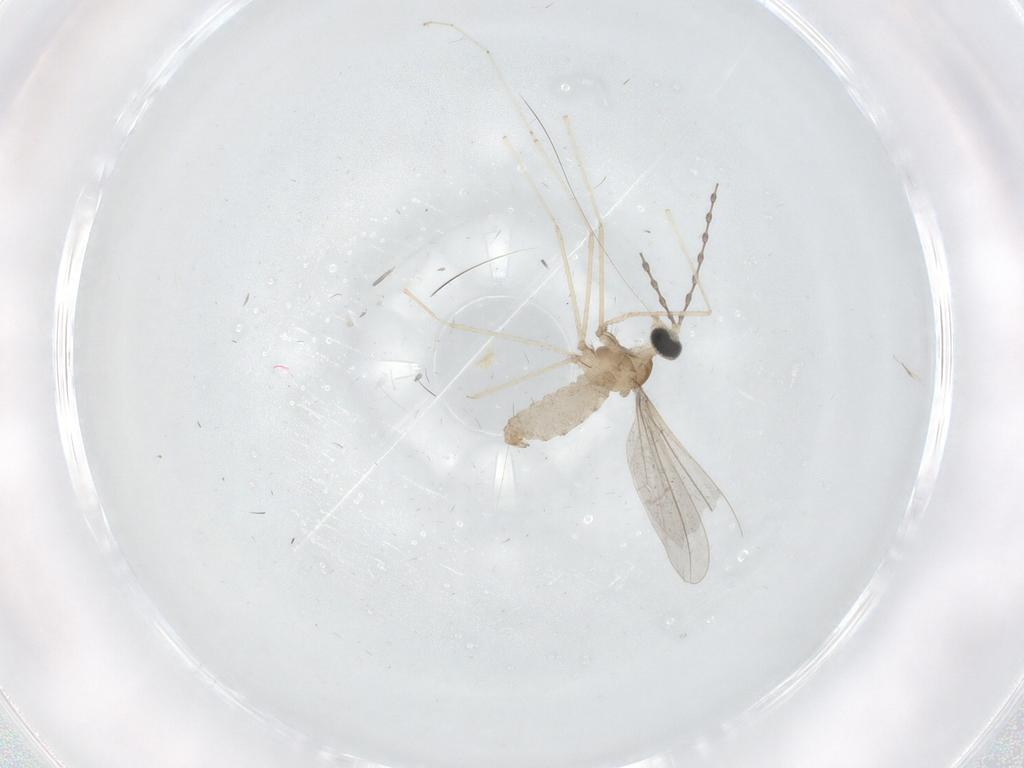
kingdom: Animalia
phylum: Arthropoda
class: Insecta
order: Diptera
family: Cecidomyiidae
